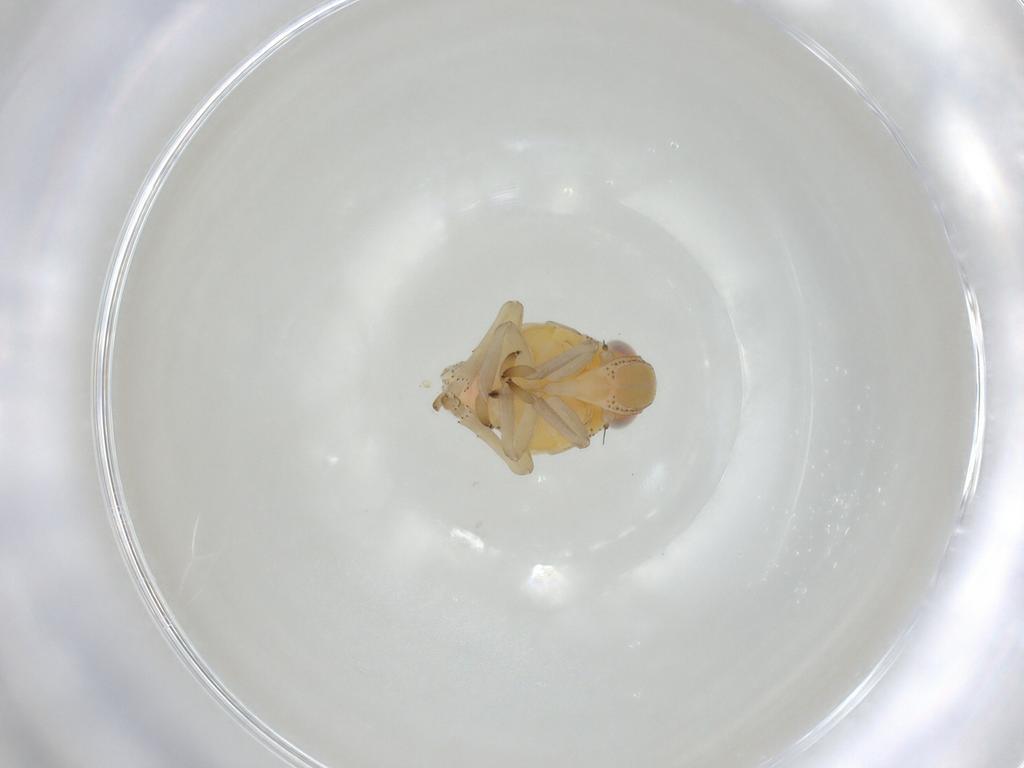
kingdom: Animalia
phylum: Arthropoda
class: Insecta
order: Hemiptera
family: Tropiduchidae
